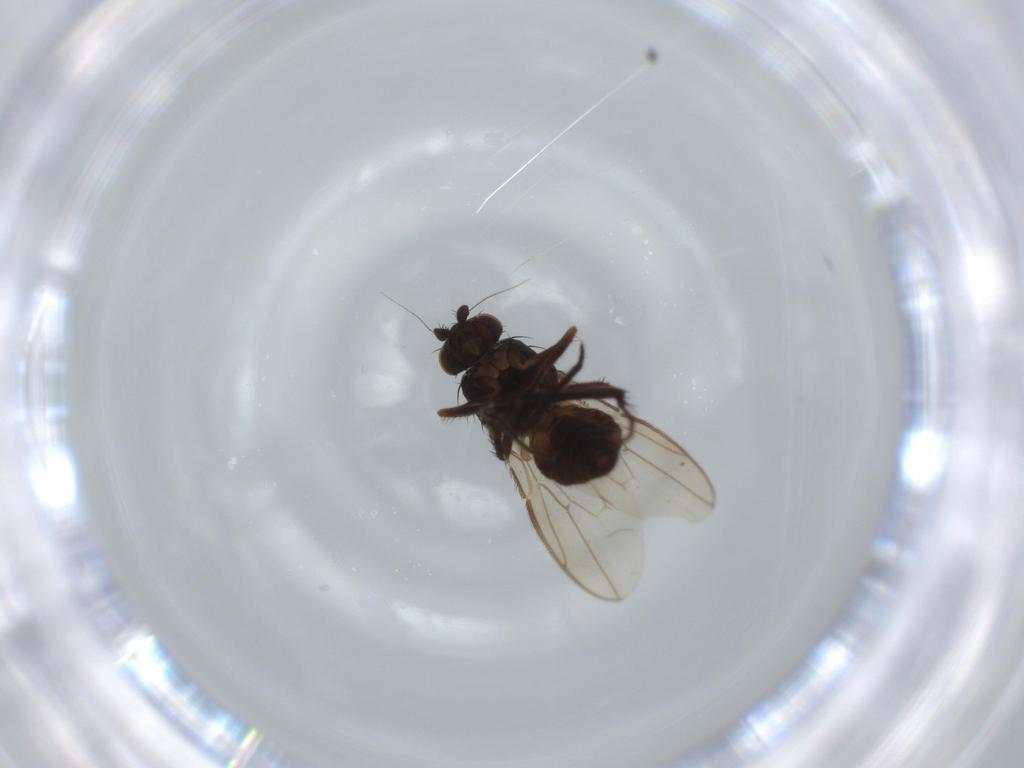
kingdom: Animalia
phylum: Arthropoda
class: Insecta
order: Diptera
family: Sphaeroceridae
